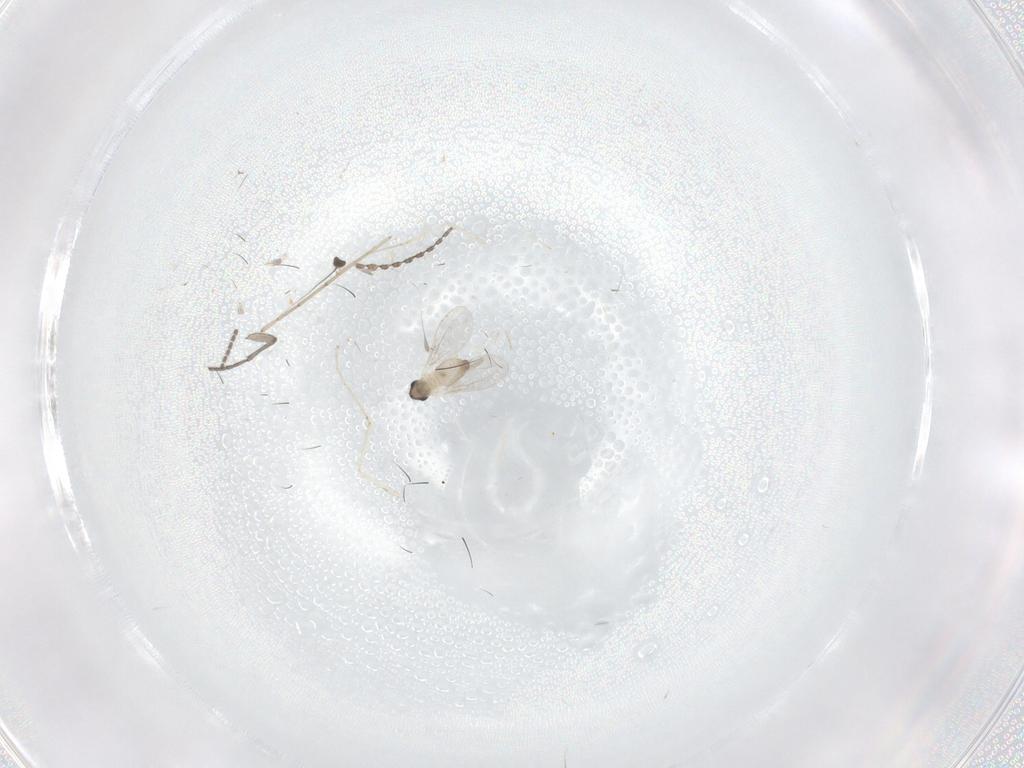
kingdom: Animalia
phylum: Arthropoda
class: Insecta
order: Diptera
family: Sciaridae
